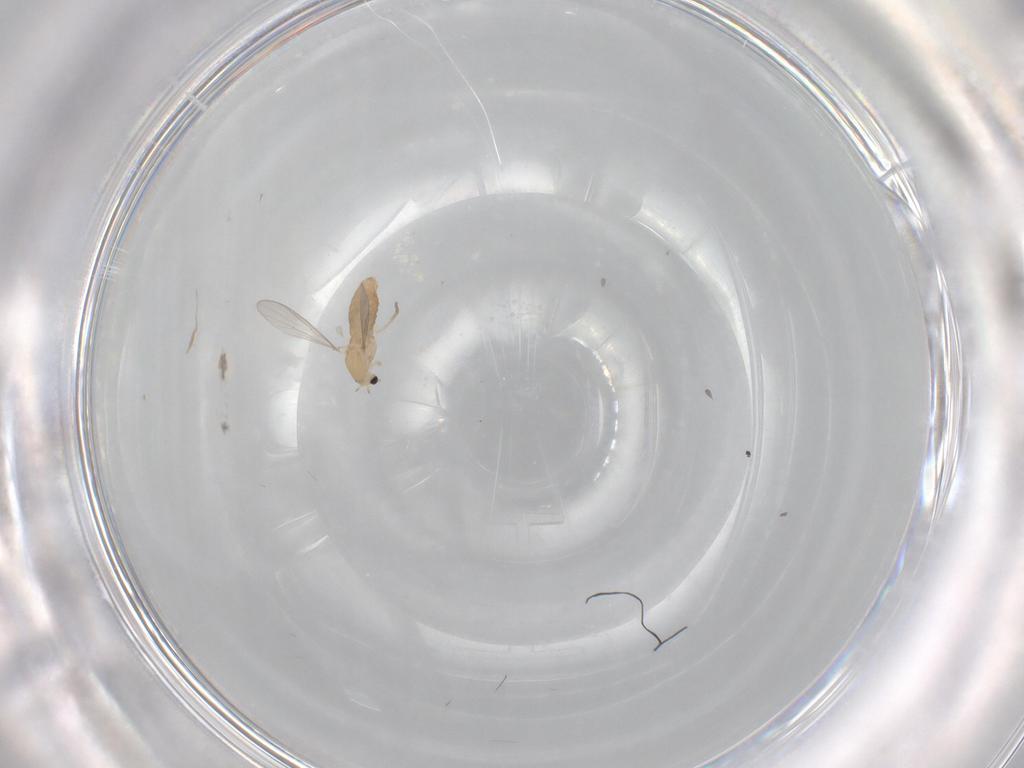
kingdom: Animalia
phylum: Arthropoda
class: Insecta
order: Diptera
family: Chironomidae
